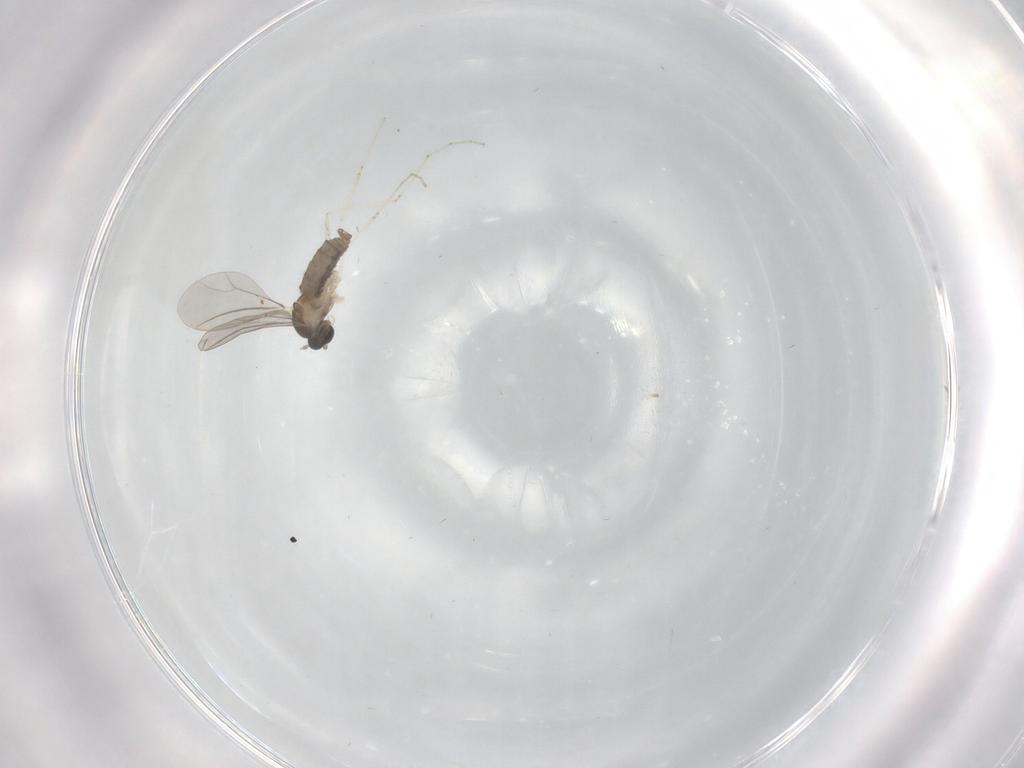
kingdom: Animalia
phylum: Arthropoda
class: Insecta
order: Diptera
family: Cecidomyiidae
